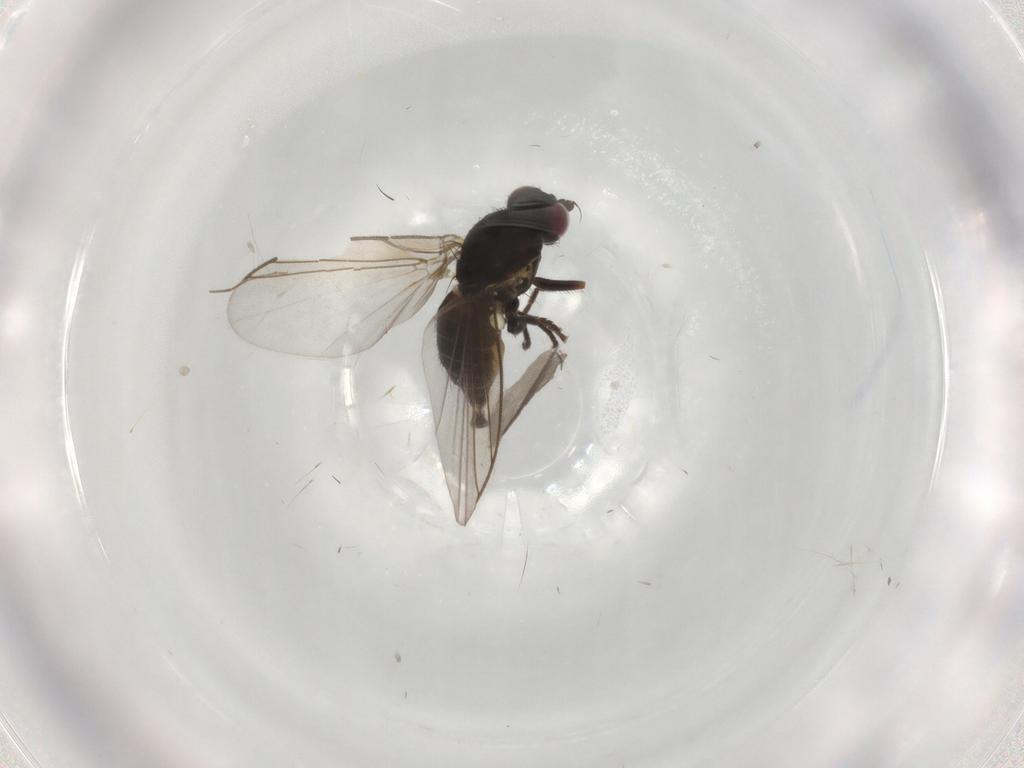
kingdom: Animalia
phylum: Arthropoda
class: Insecta
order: Diptera
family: Agromyzidae
